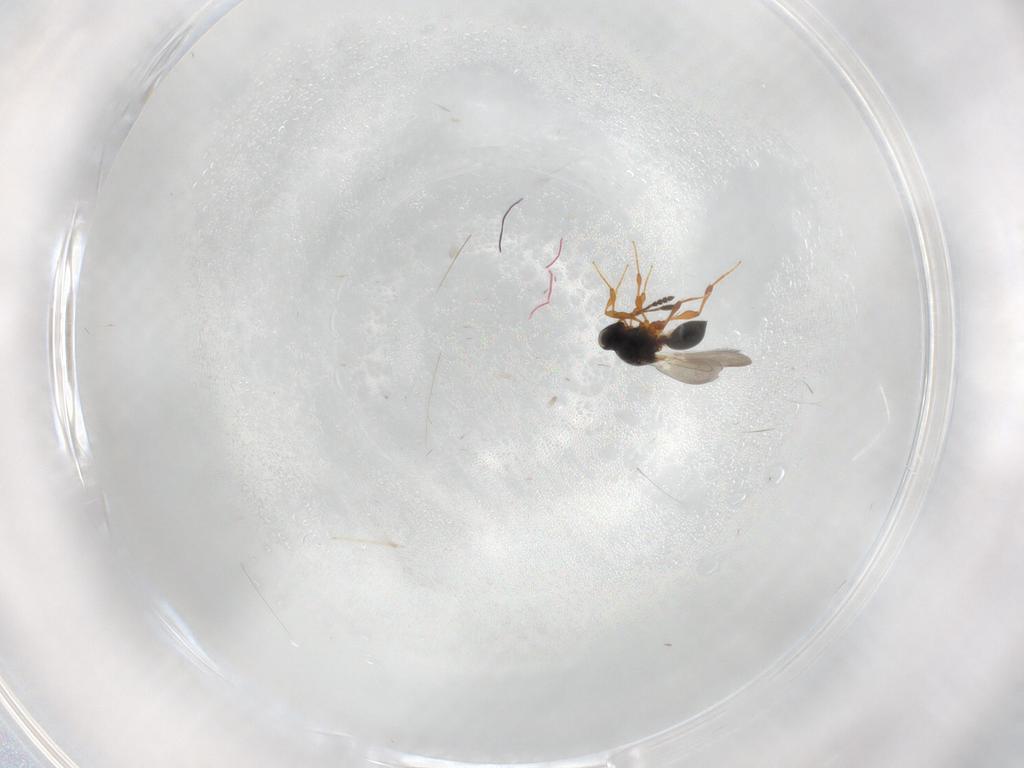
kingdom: Animalia
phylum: Arthropoda
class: Insecta
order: Hymenoptera
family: Platygastridae
